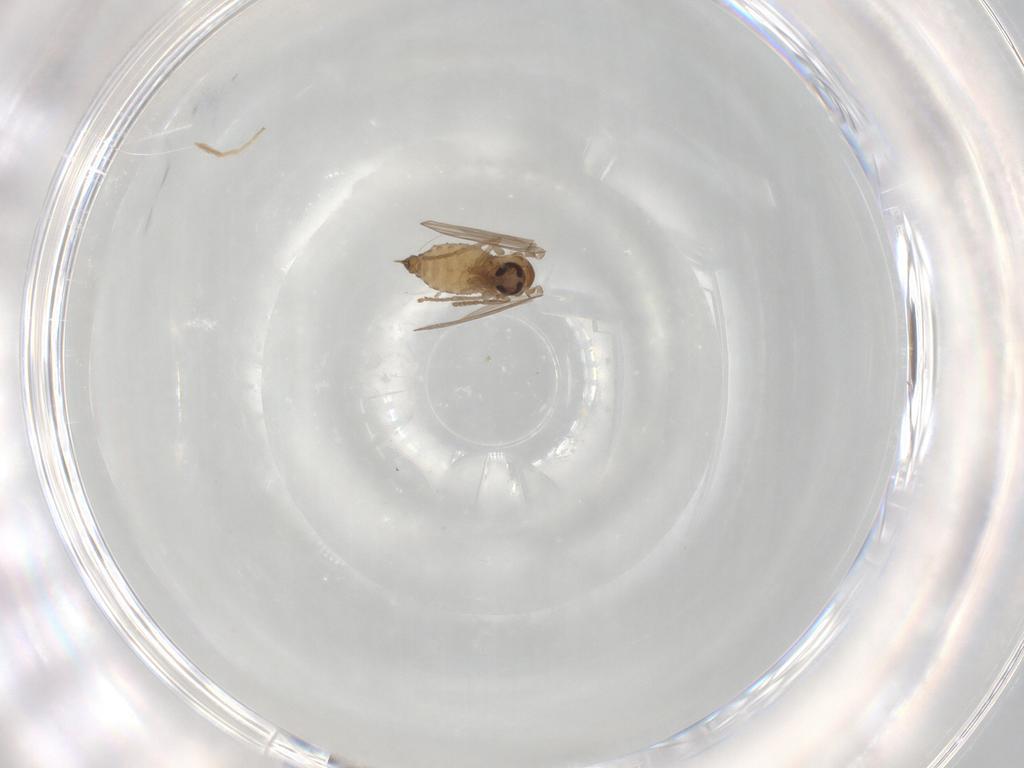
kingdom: Animalia
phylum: Arthropoda
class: Insecta
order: Diptera
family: Psychodidae
